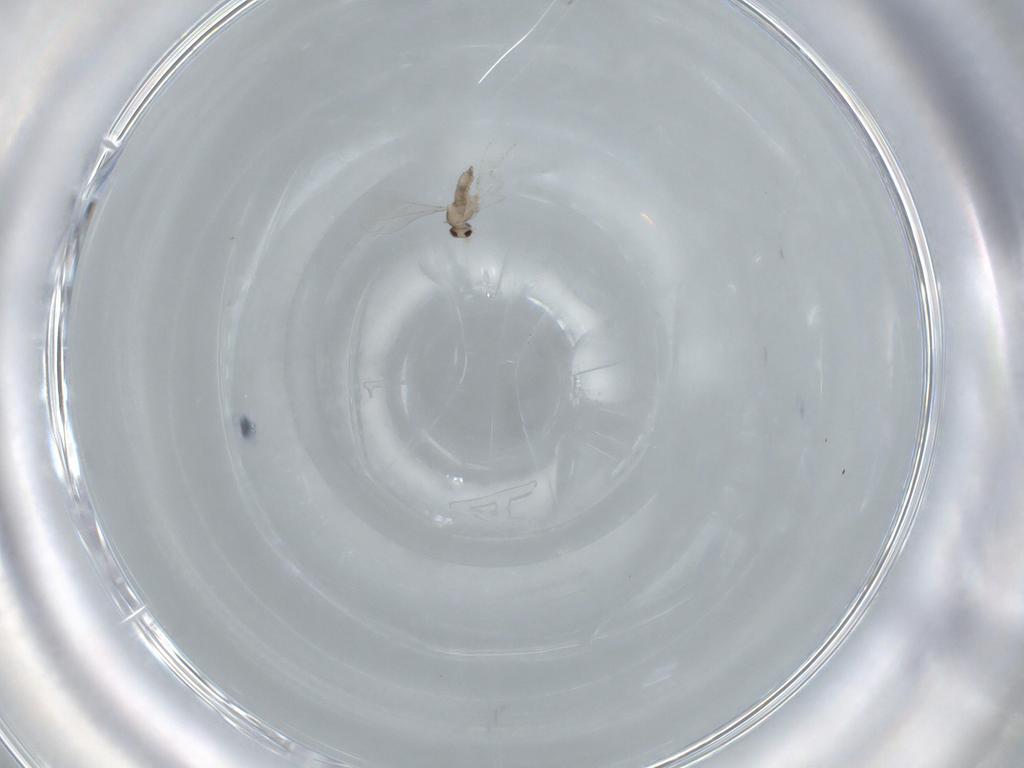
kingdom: Animalia
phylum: Arthropoda
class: Insecta
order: Diptera
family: Cecidomyiidae
